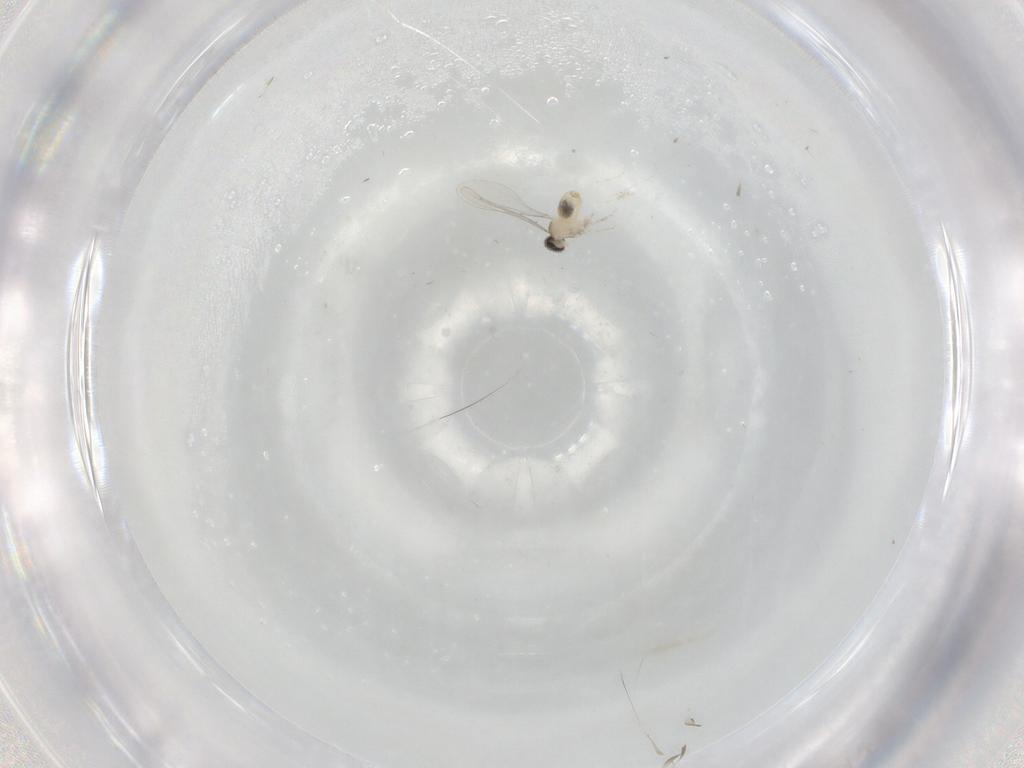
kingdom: Animalia
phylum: Arthropoda
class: Insecta
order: Diptera
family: Cecidomyiidae
